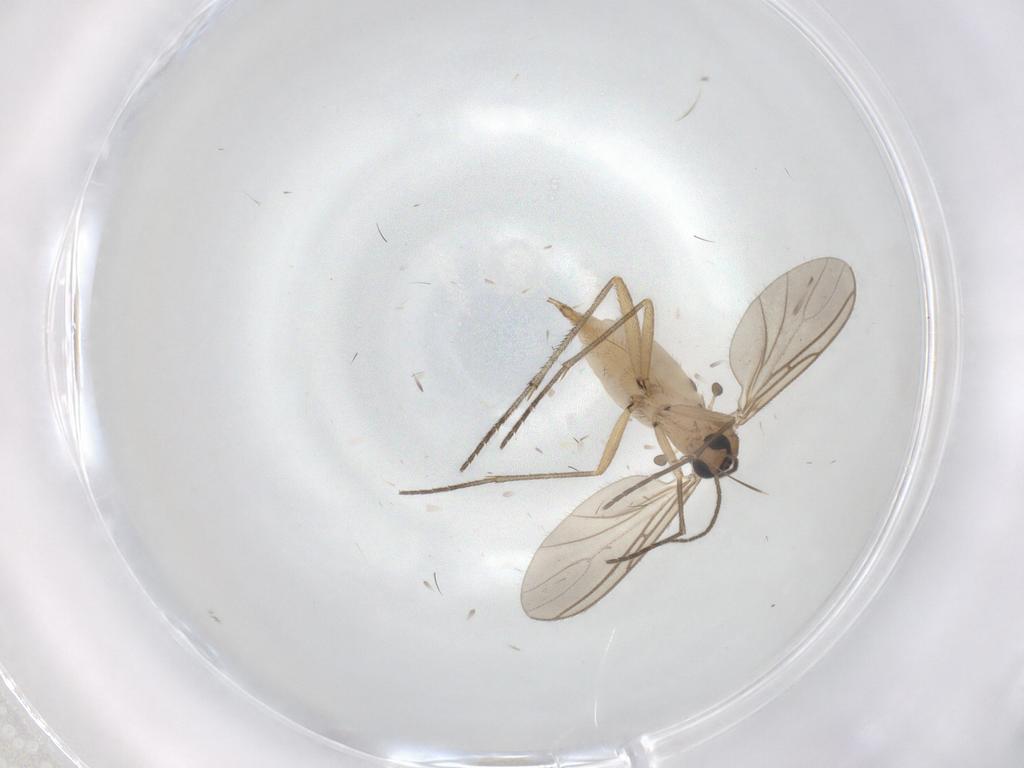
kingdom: Animalia
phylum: Arthropoda
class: Insecta
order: Diptera
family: Sciaridae
